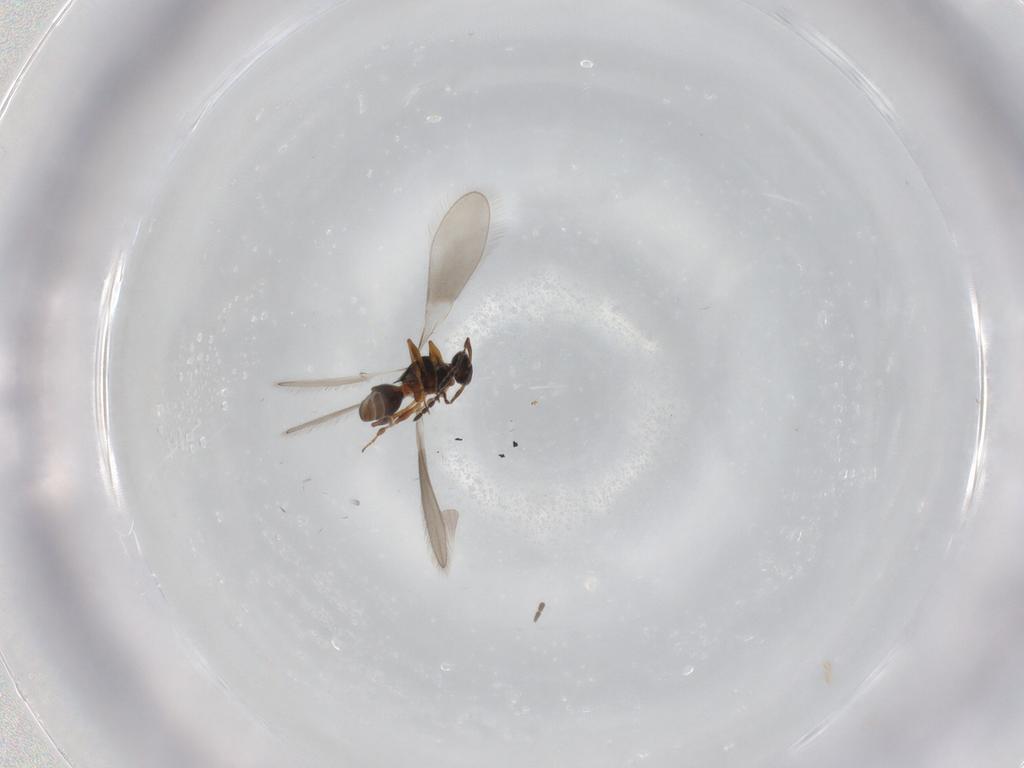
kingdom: Animalia
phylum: Arthropoda
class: Insecta
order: Hymenoptera
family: Platygastridae
